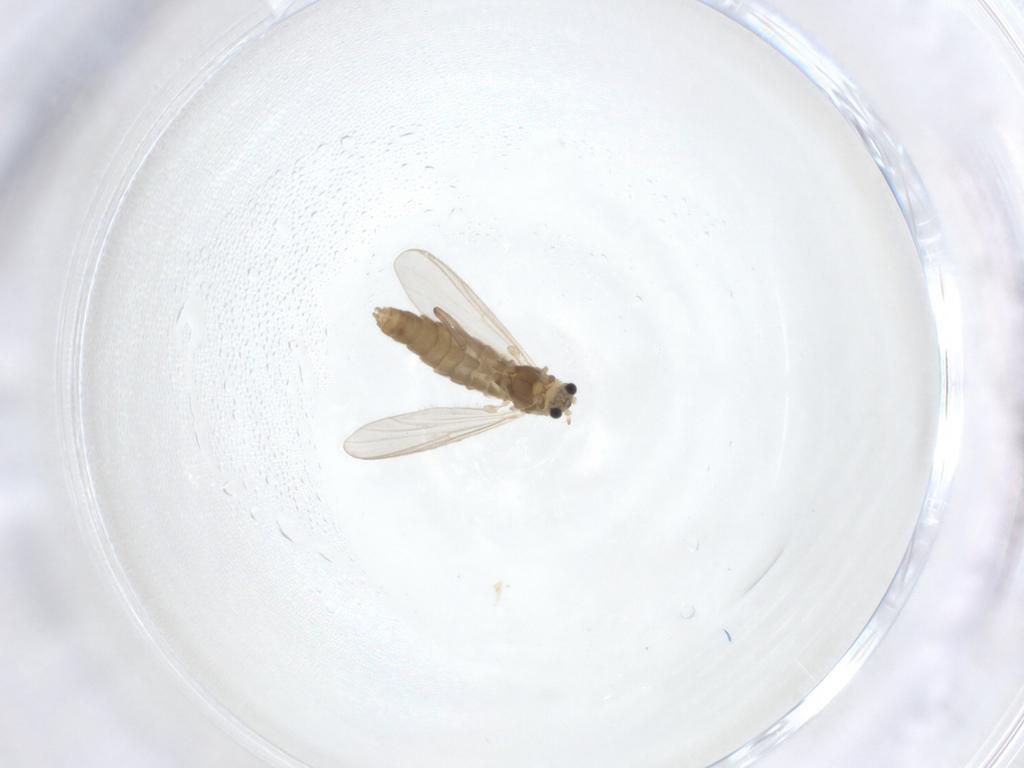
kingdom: Animalia
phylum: Arthropoda
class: Insecta
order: Diptera
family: Chironomidae
